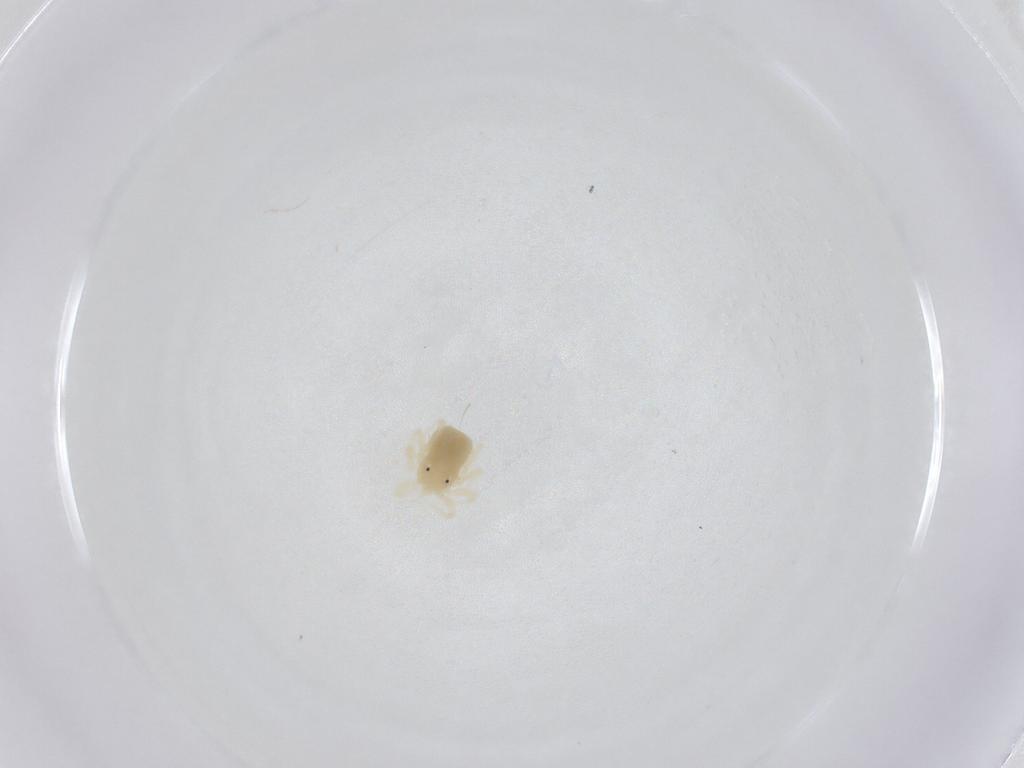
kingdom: Animalia
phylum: Arthropoda
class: Arachnida
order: Trombidiformes
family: Anystidae
